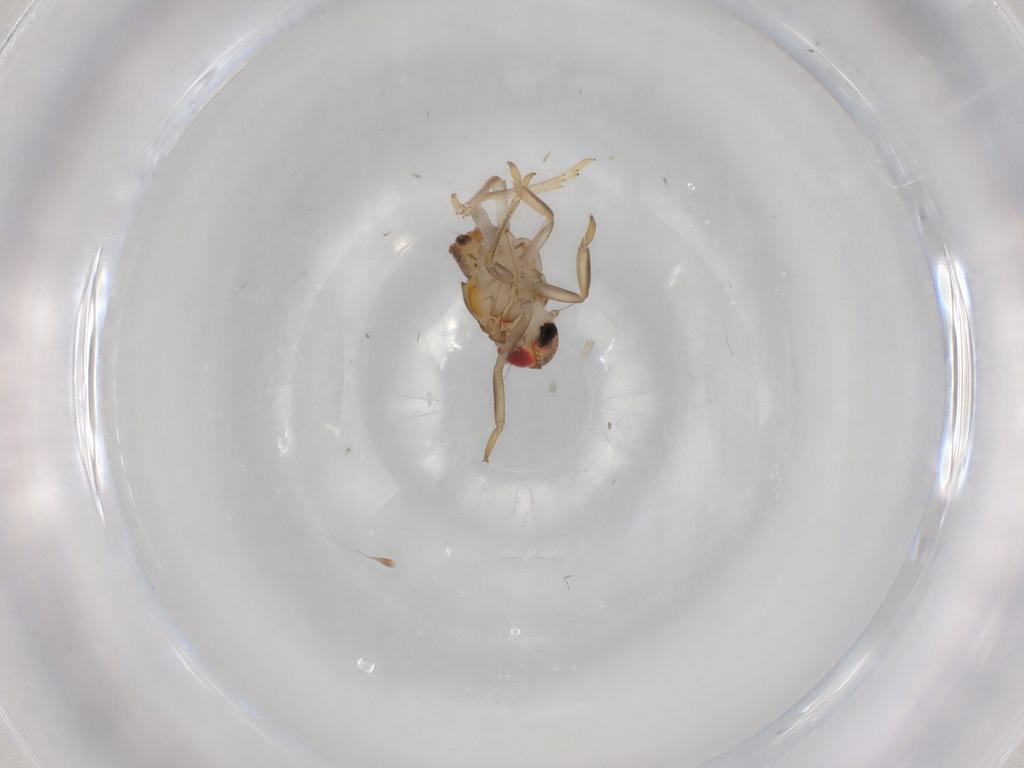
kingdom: Animalia
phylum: Arthropoda
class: Insecta
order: Hemiptera
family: Issidae
